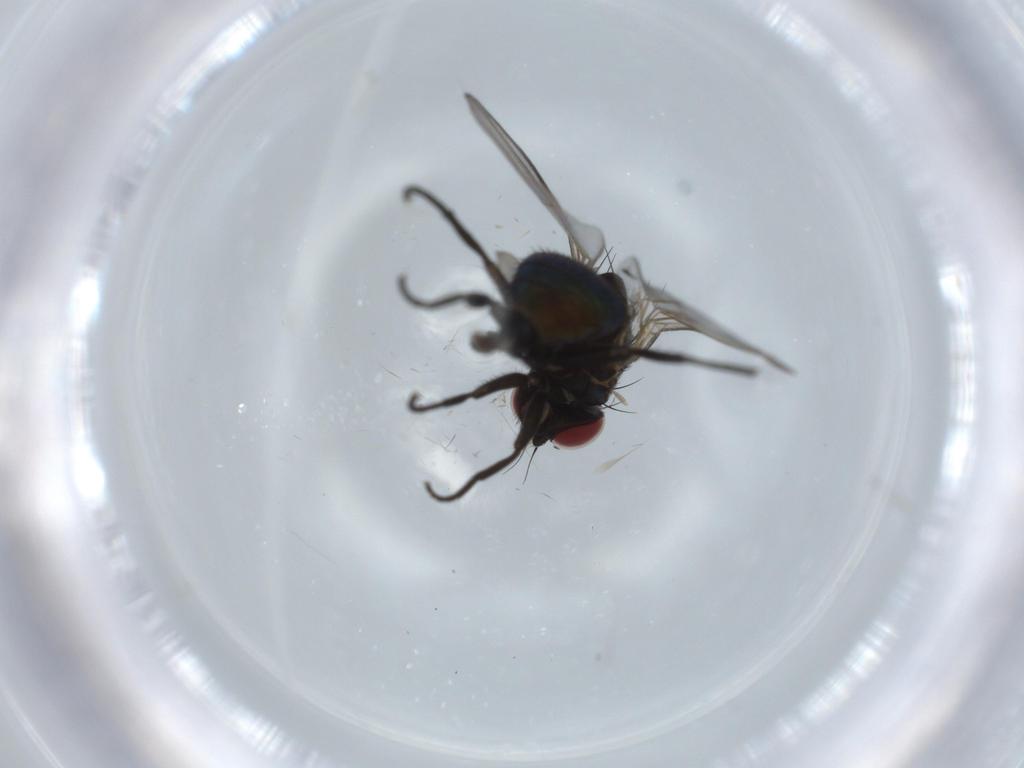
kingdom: Animalia
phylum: Arthropoda
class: Insecta
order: Diptera
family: Agromyzidae
